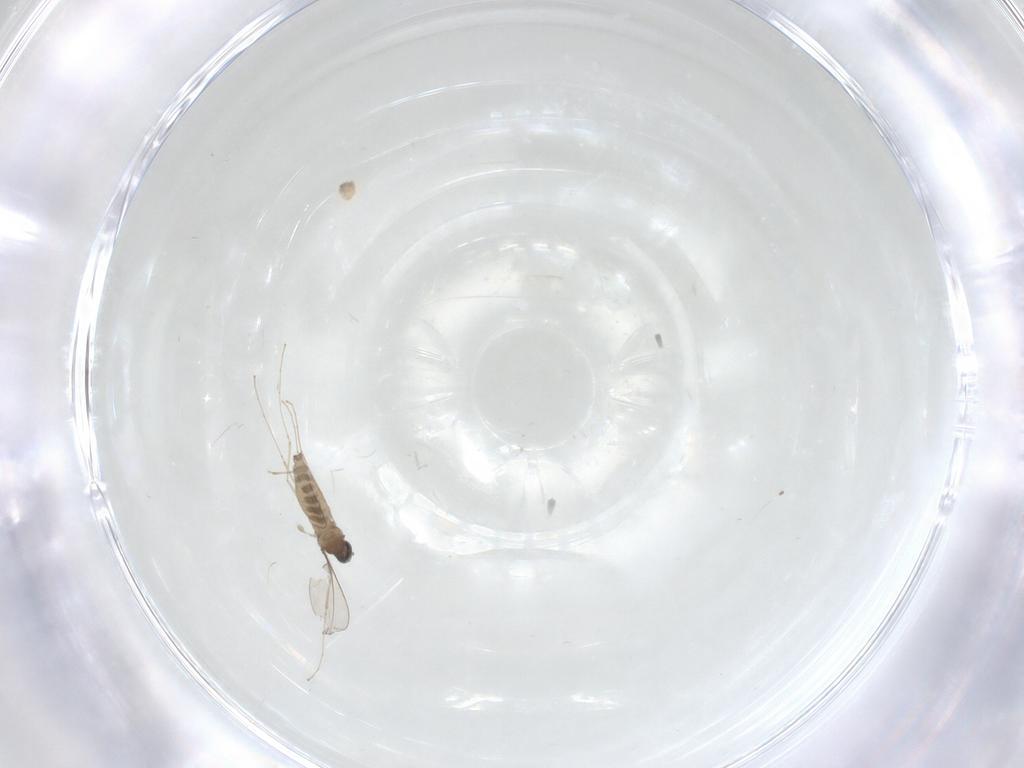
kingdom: Animalia
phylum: Arthropoda
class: Insecta
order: Diptera
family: Cecidomyiidae
